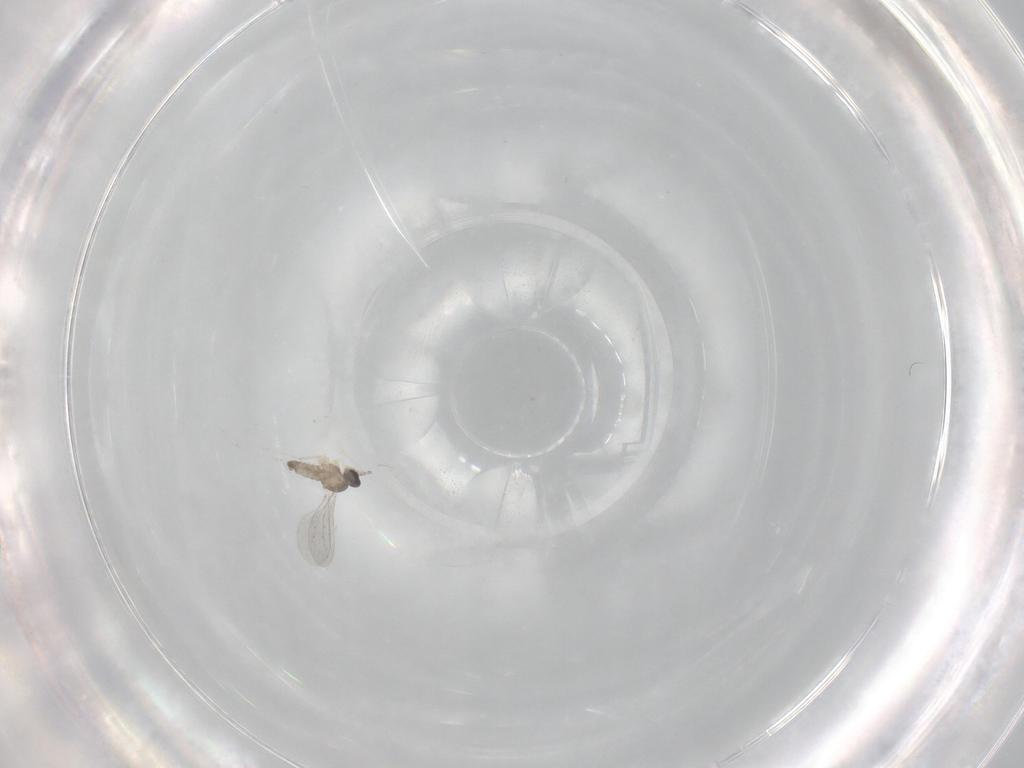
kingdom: Animalia
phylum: Arthropoda
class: Insecta
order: Diptera
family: Cecidomyiidae
